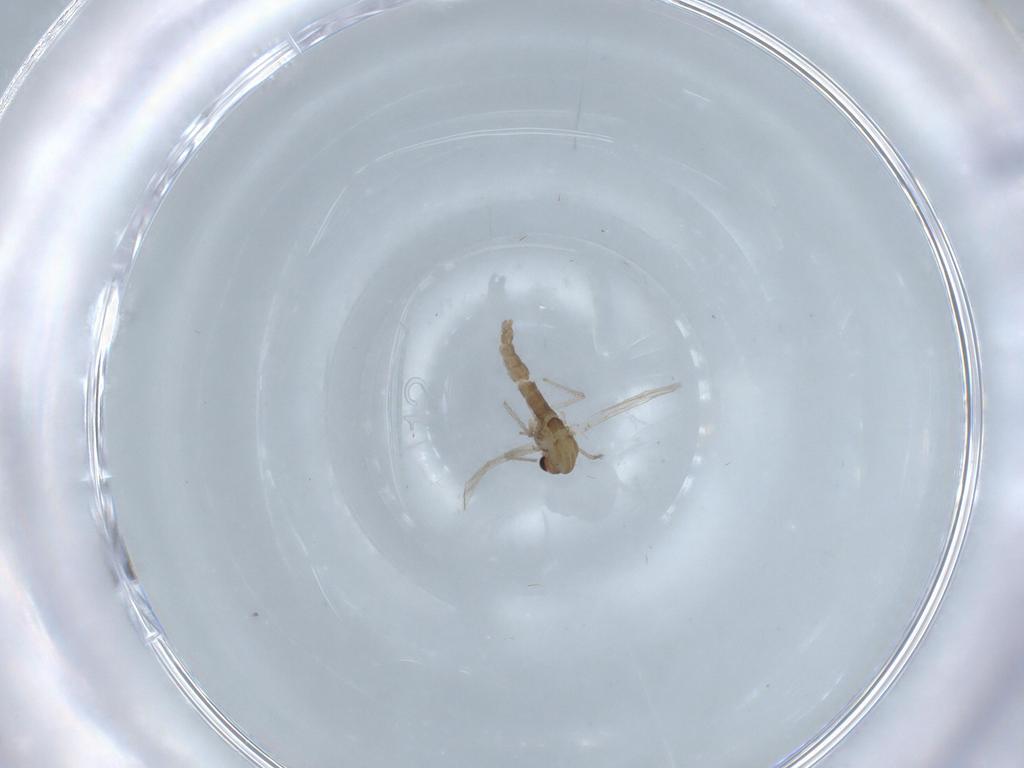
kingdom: Animalia
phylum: Arthropoda
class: Insecta
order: Diptera
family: Chironomidae
